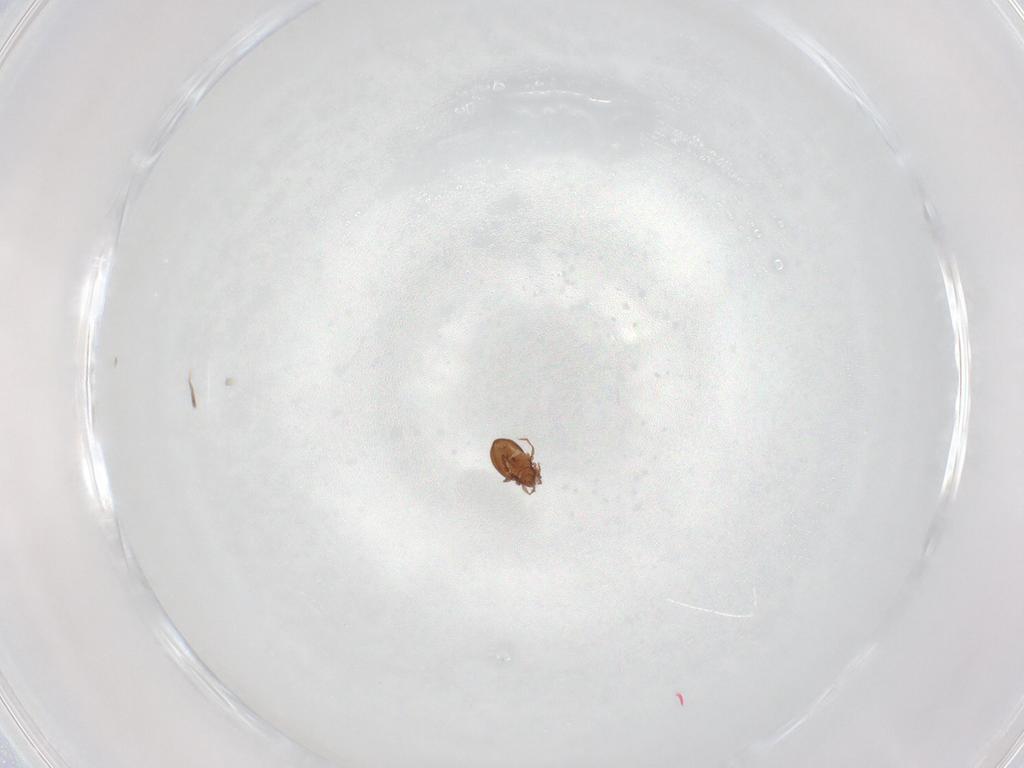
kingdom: Animalia
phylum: Arthropoda
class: Arachnida
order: Sarcoptiformes
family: Oribatulidae
